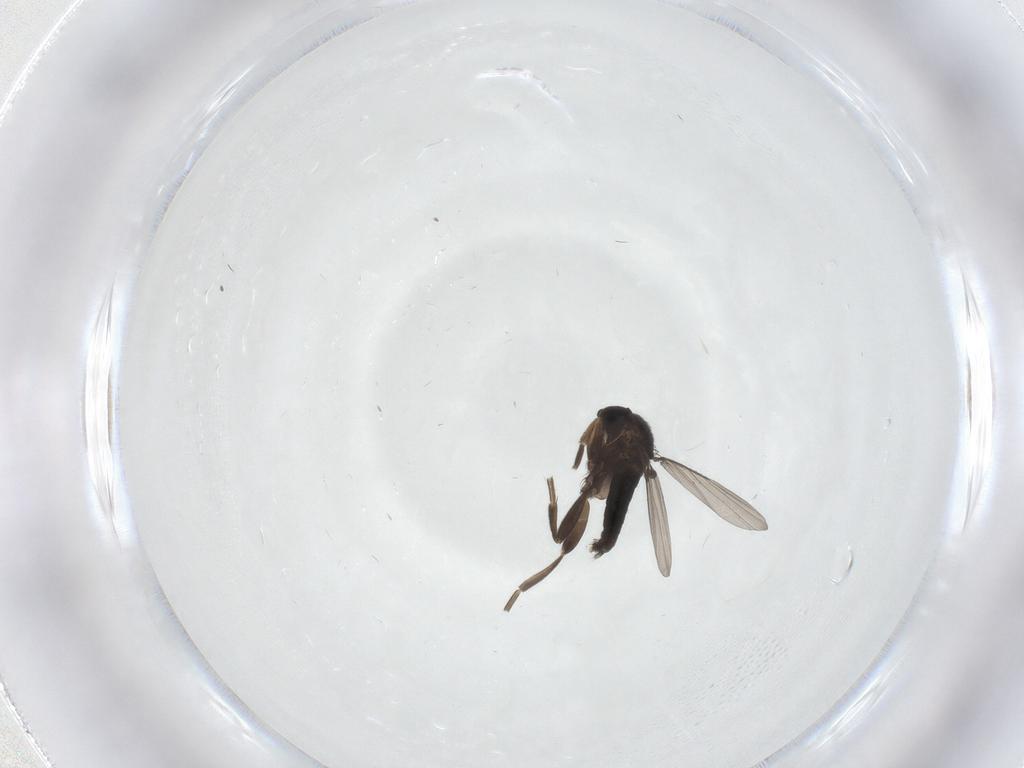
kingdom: Animalia
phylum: Arthropoda
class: Insecta
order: Diptera
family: Phoridae
